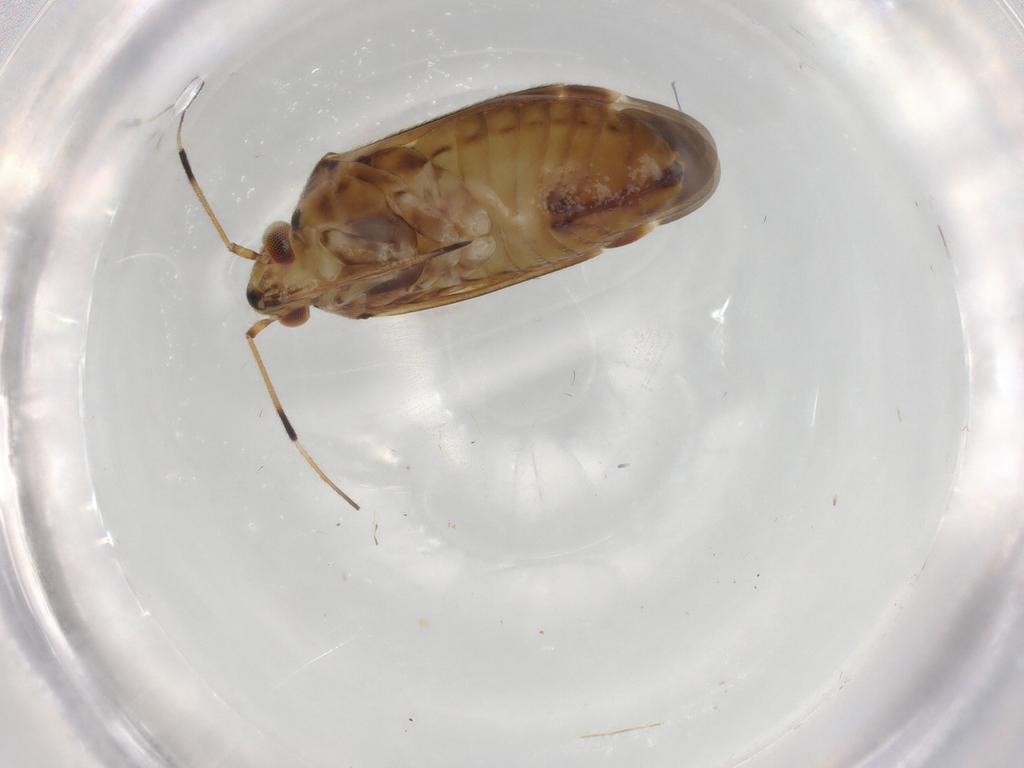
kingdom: Animalia
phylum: Arthropoda
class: Insecta
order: Hemiptera
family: Miridae
